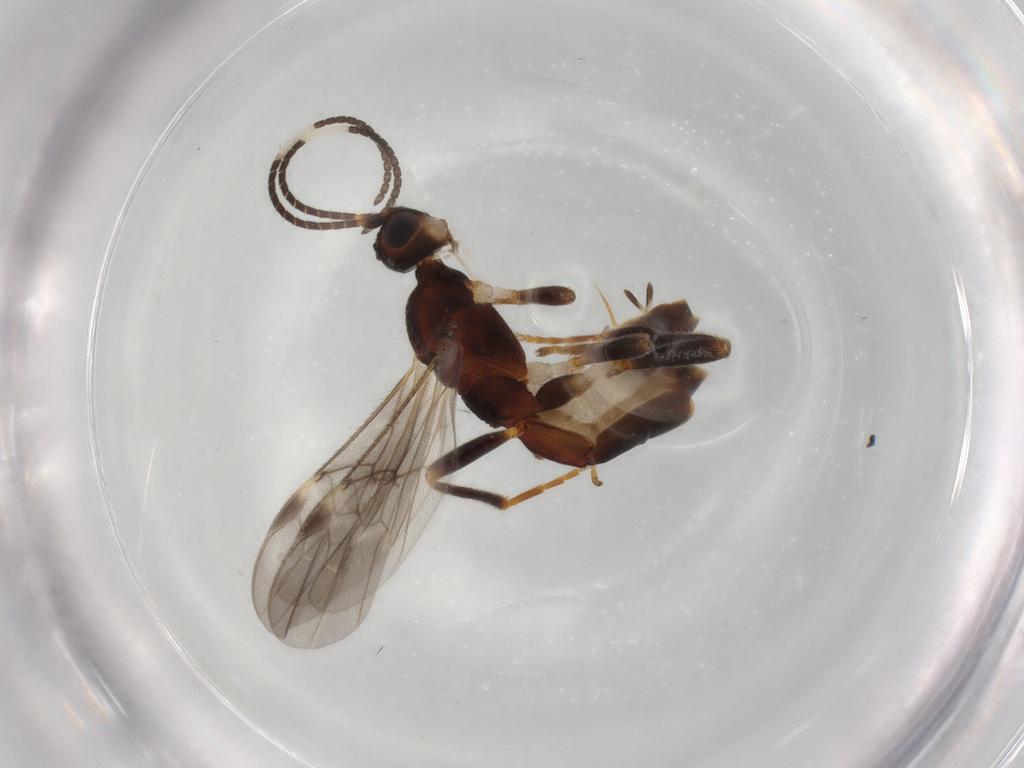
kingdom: Animalia
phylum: Arthropoda
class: Insecta
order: Hymenoptera
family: Braconidae
